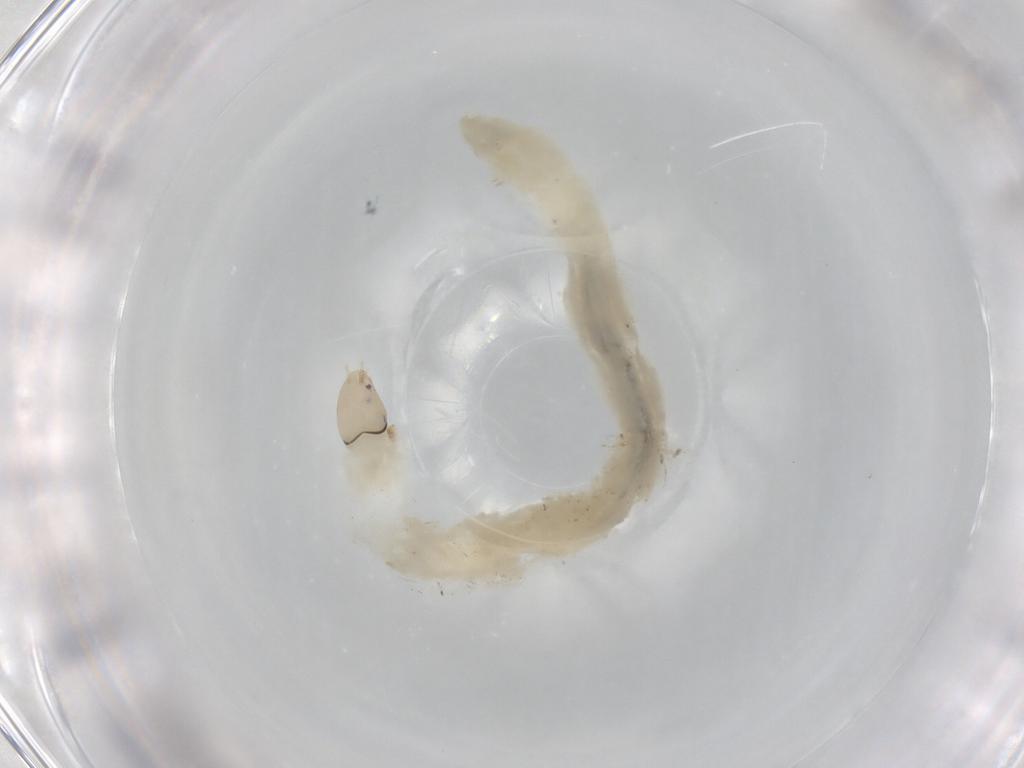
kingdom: Animalia
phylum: Arthropoda
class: Insecta
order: Diptera
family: Chironomidae
